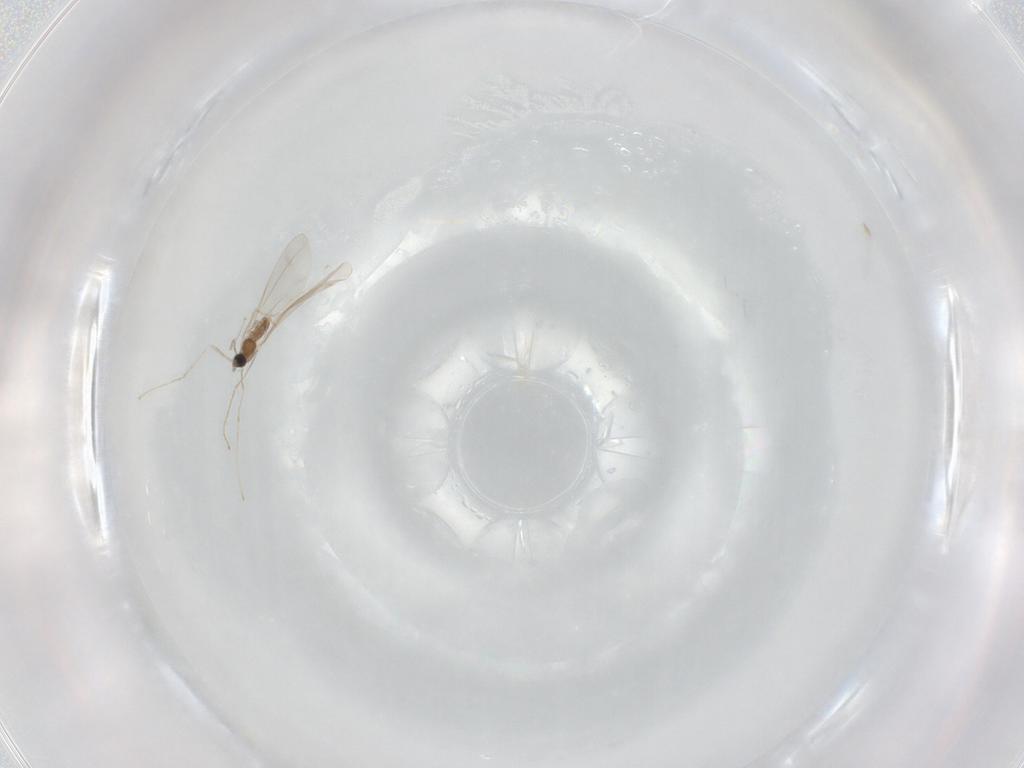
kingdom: Animalia
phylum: Arthropoda
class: Insecta
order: Diptera
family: Cecidomyiidae
